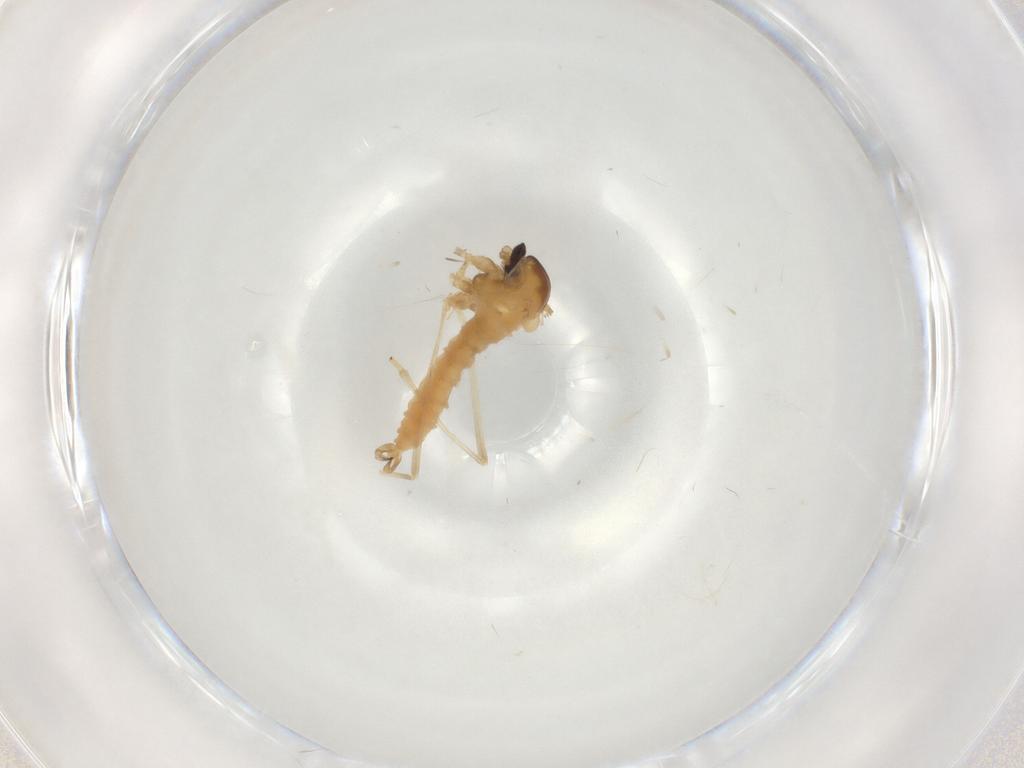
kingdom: Animalia
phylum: Arthropoda
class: Insecta
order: Diptera
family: Cecidomyiidae
